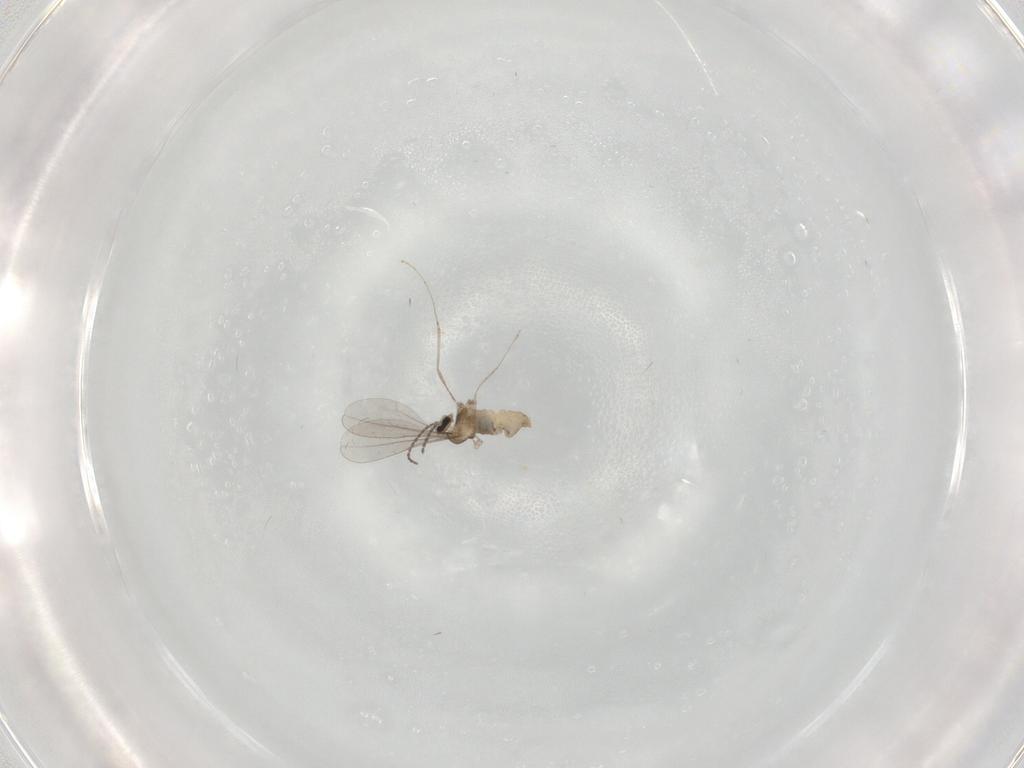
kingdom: Animalia
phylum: Arthropoda
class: Insecta
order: Diptera
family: Cecidomyiidae
